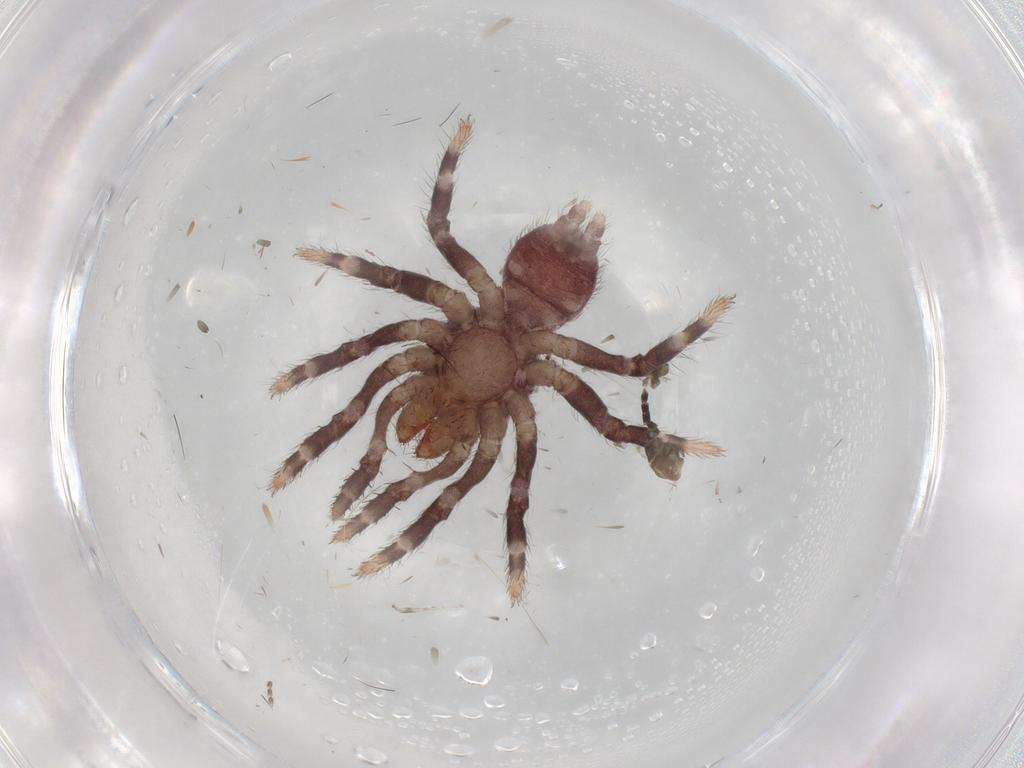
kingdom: Animalia
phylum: Arthropoda
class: Arachnida
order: Araneae
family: Halonoproctidae
